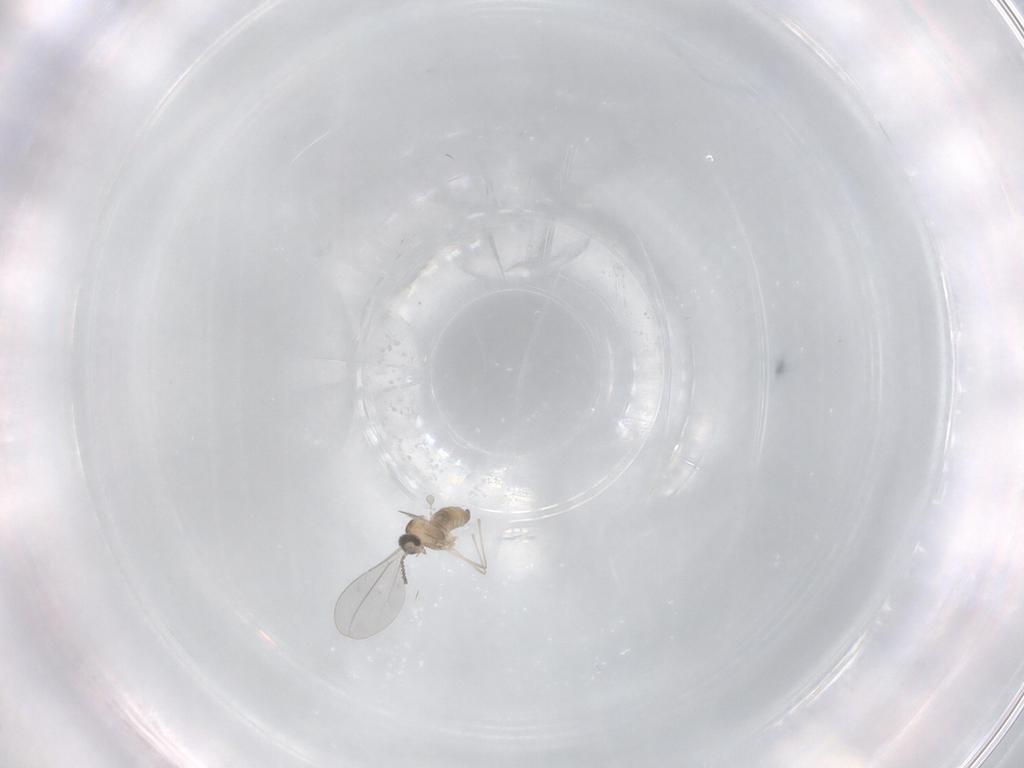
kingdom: Animalia
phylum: Arthropoda
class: Insecta
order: Diptera
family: Cecidomyiidae
